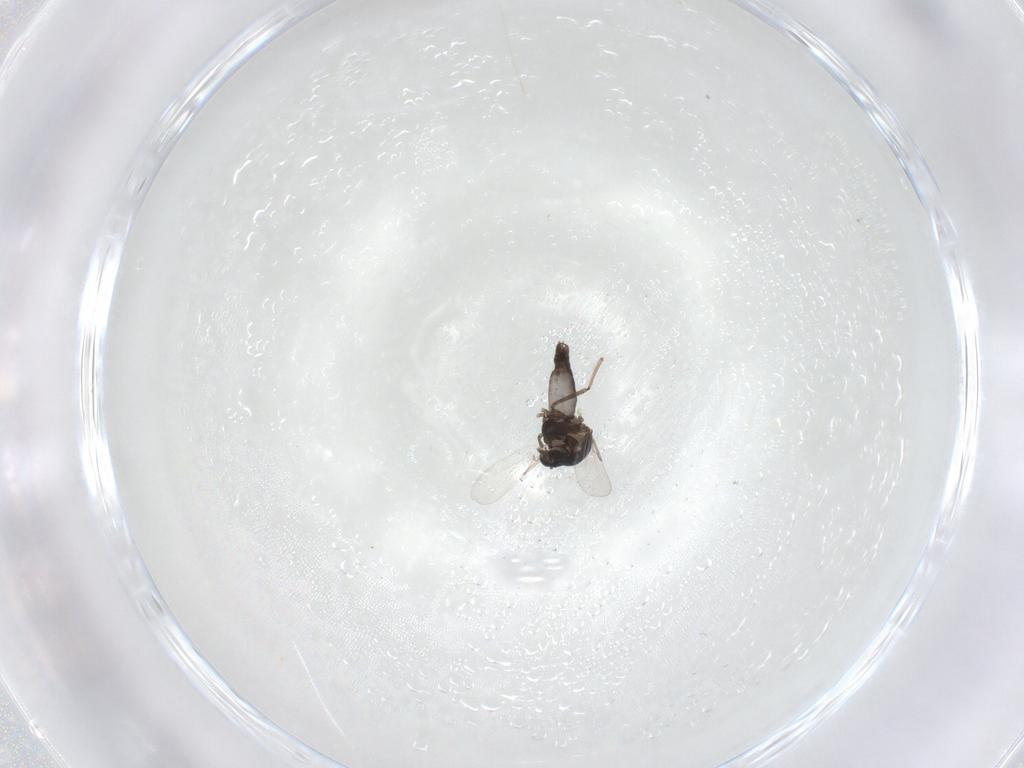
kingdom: Animalia
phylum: Arthropoda
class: Insecta
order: Diptera
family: Ceratopogonidae
